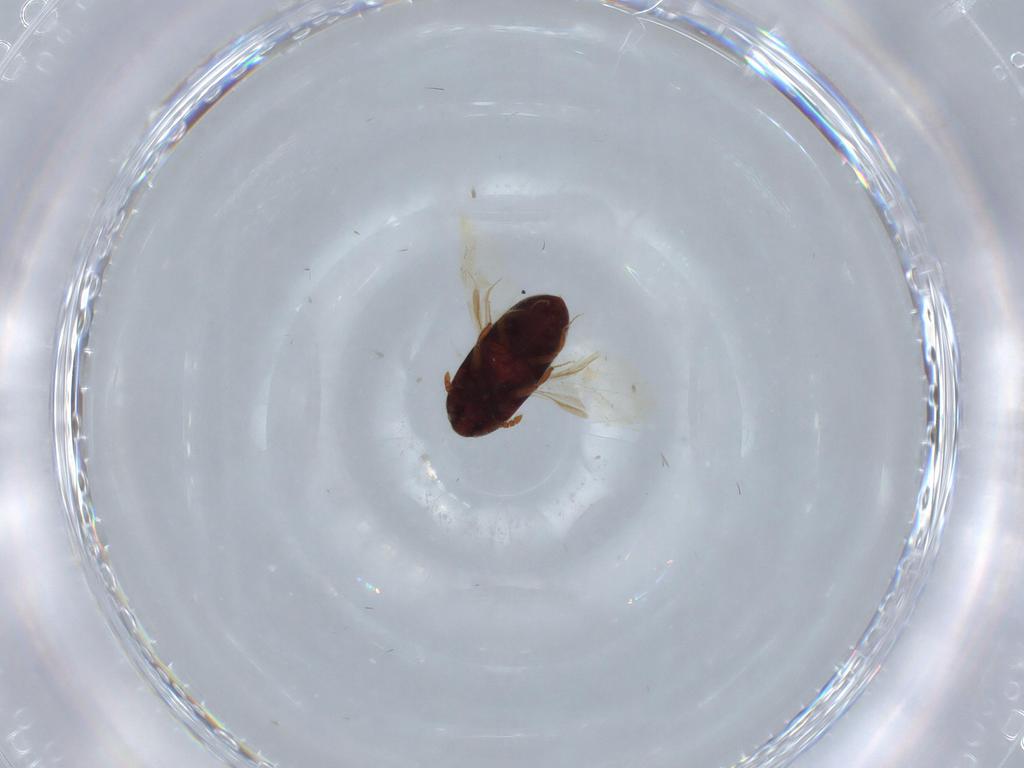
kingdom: Animalia
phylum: Arthropoda
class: Insecta
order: Coleoptera
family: Throscidae
